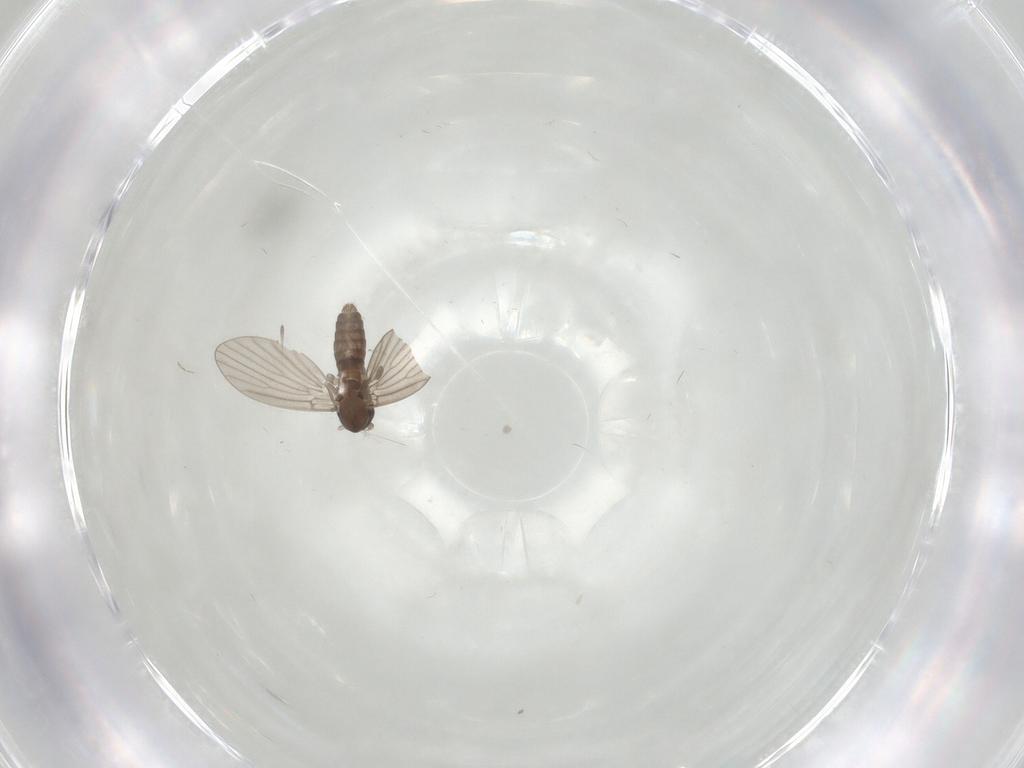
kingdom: Animalia
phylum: Arthropoda
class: Insecta
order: Diptera
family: Chironomidae
